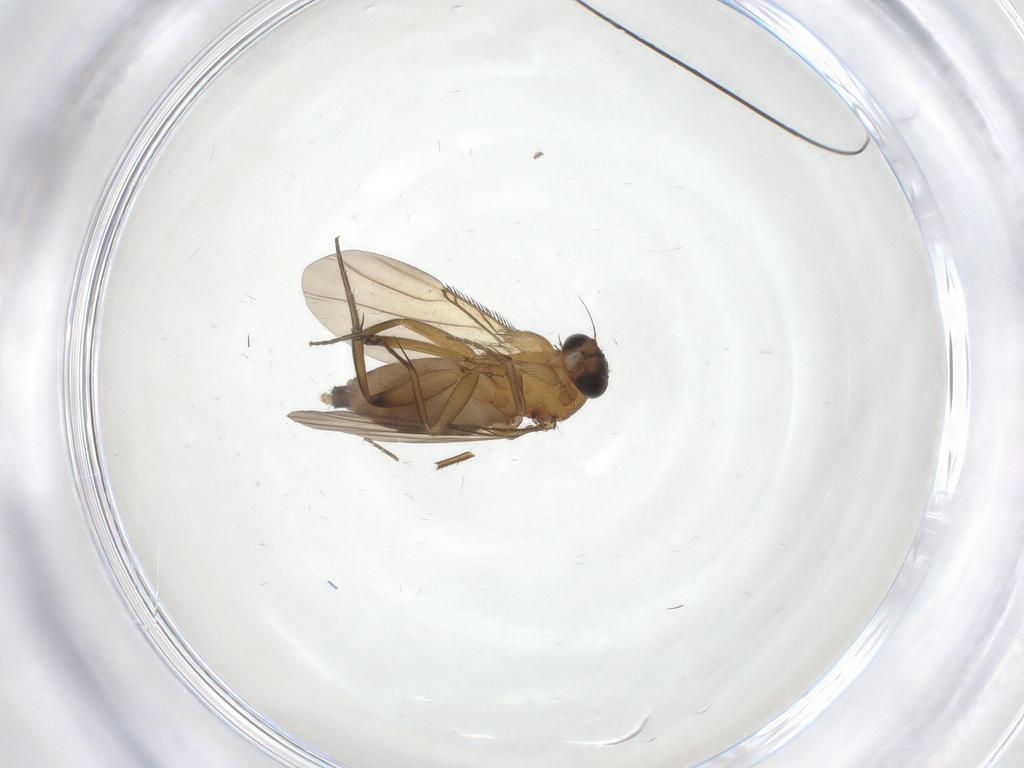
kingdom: Animalia
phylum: Arthropoda
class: Insecta
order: Diptera
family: Phoridae
